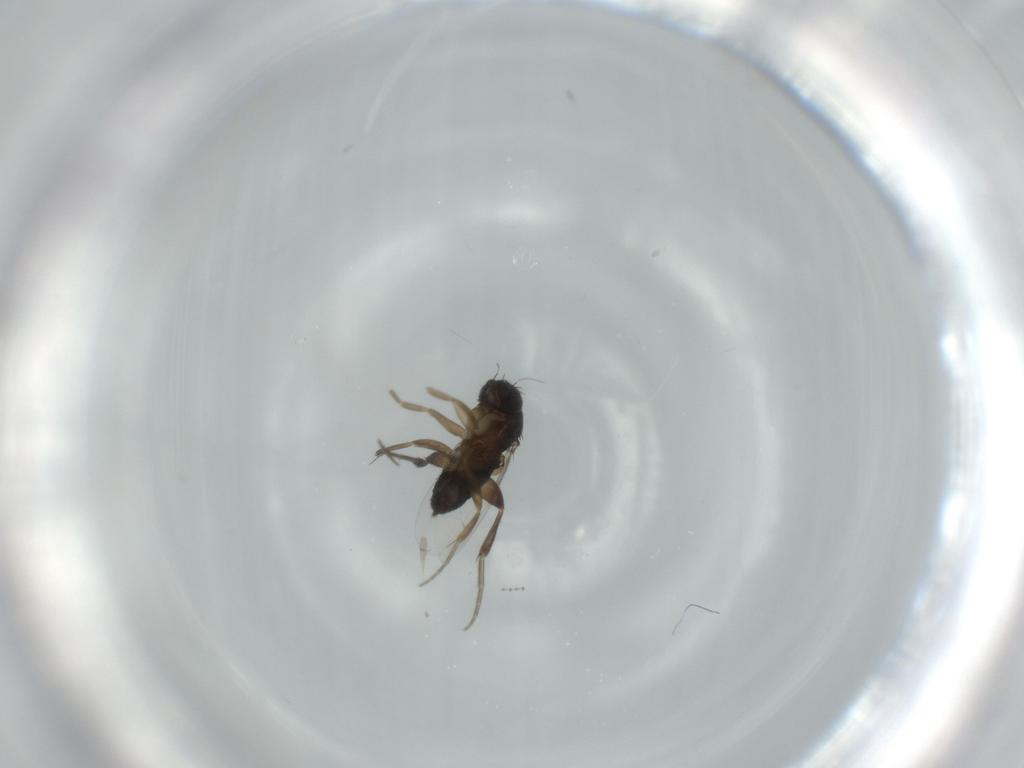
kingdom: Animalia
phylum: Arthropoda
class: Insecta
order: Diptera
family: Phoridae
